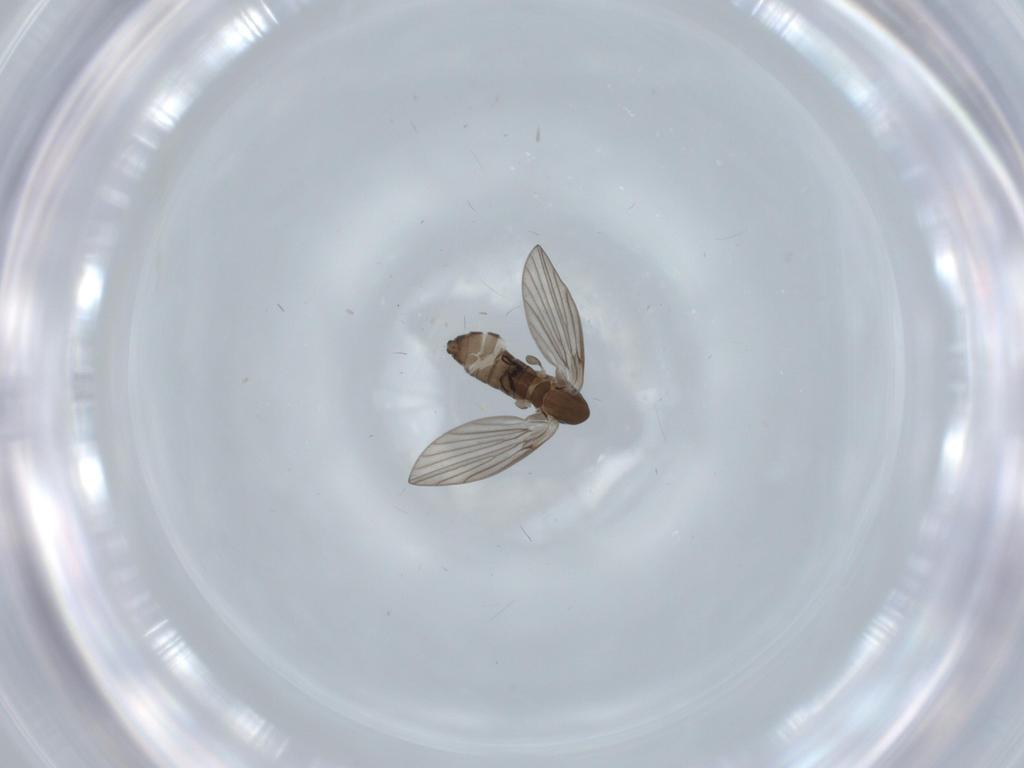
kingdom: Animalia
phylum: Arthropoda
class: Insecta
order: Diptera
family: Psychodidae
